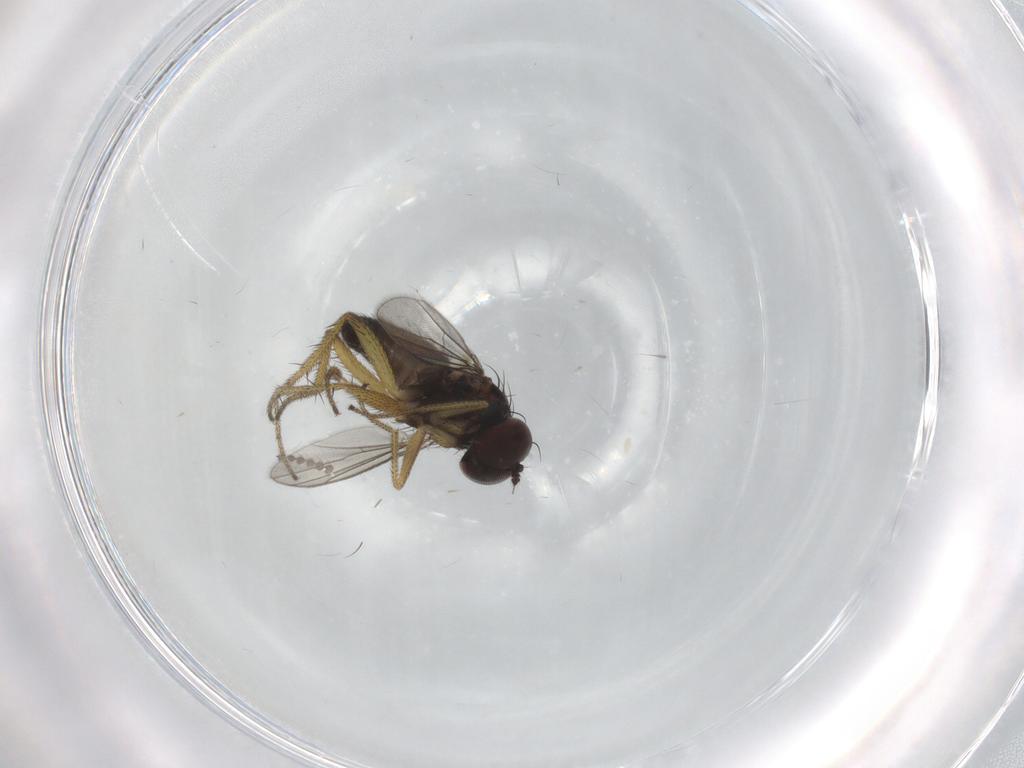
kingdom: Animalia
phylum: Arthropoda
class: Insecta
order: Diptera
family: Dolichopodidae
